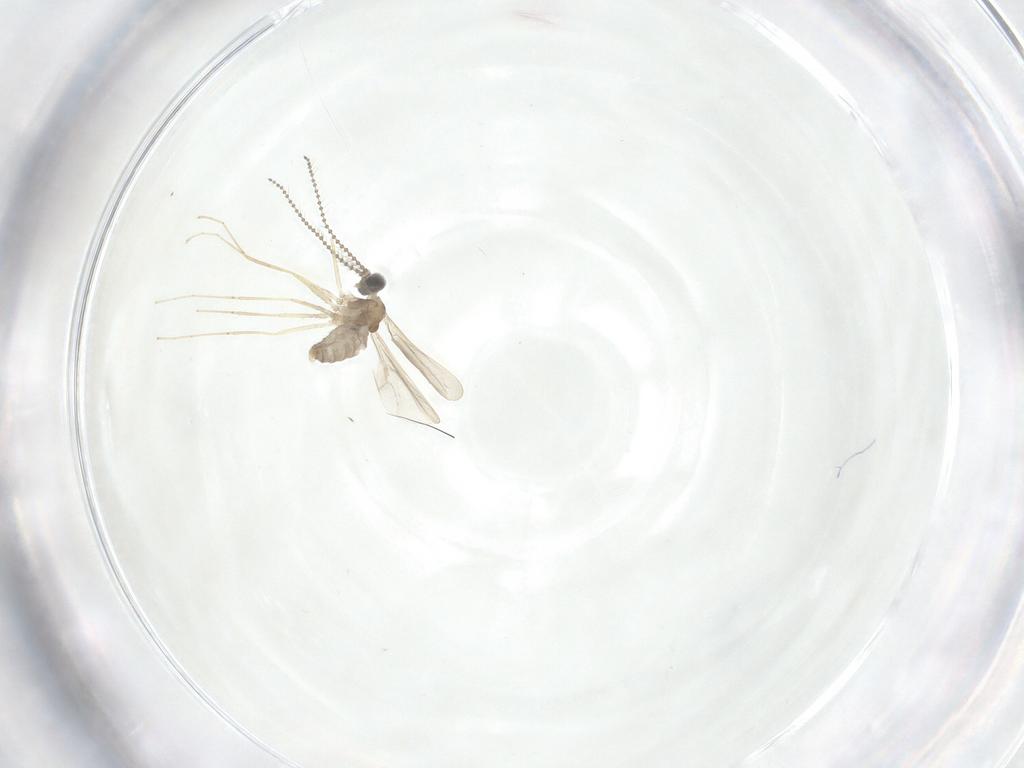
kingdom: Animalia
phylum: Arthropoda
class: Insecta
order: Diptera
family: Cecidomyiidae
